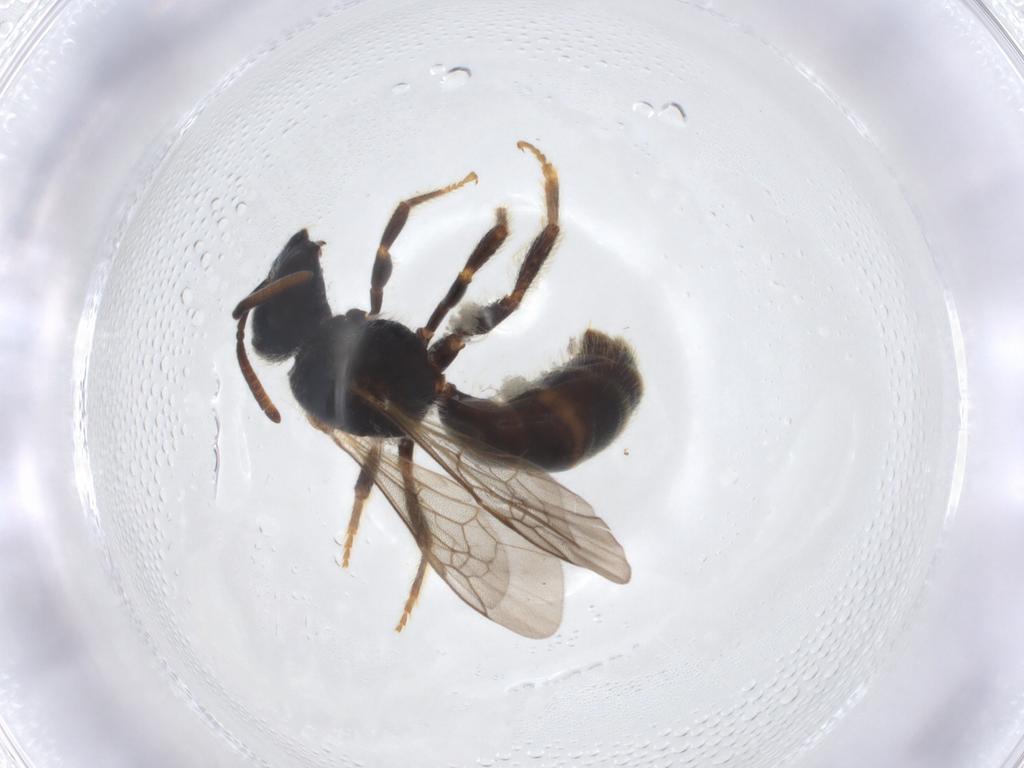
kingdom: Animalia
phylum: Arthropoda
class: Insecta
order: Hymenoptera
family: Halictidae
